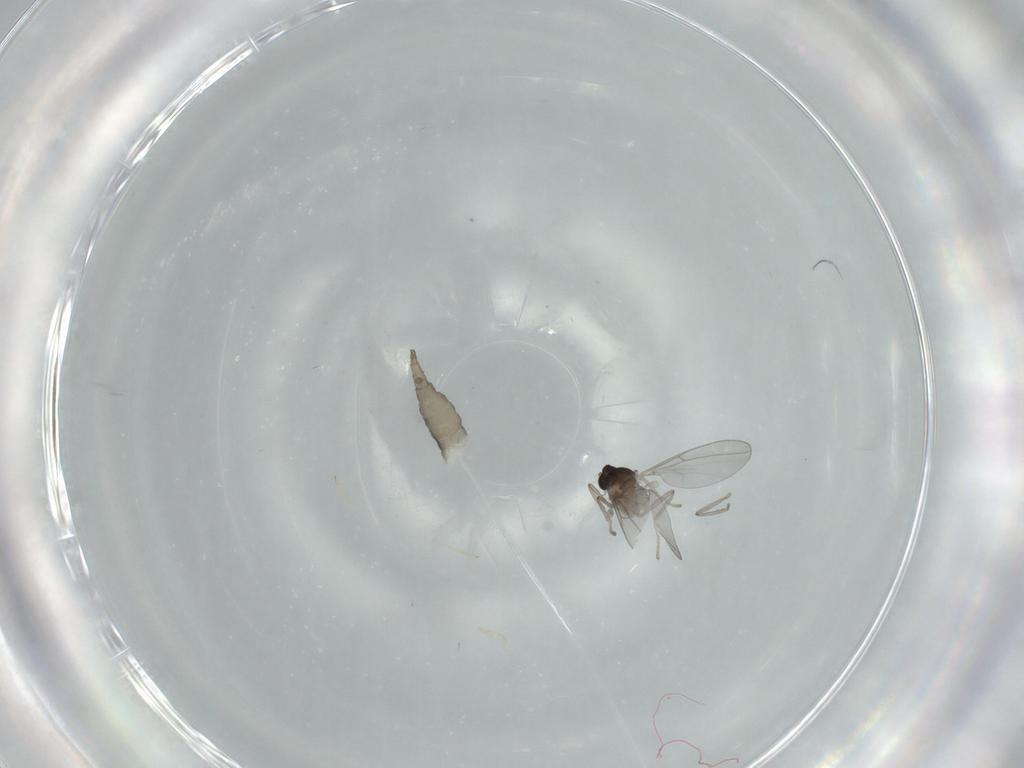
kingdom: Animalia
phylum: Arthropoda
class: Insecta
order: Diptera
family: Cecidomyiidae
